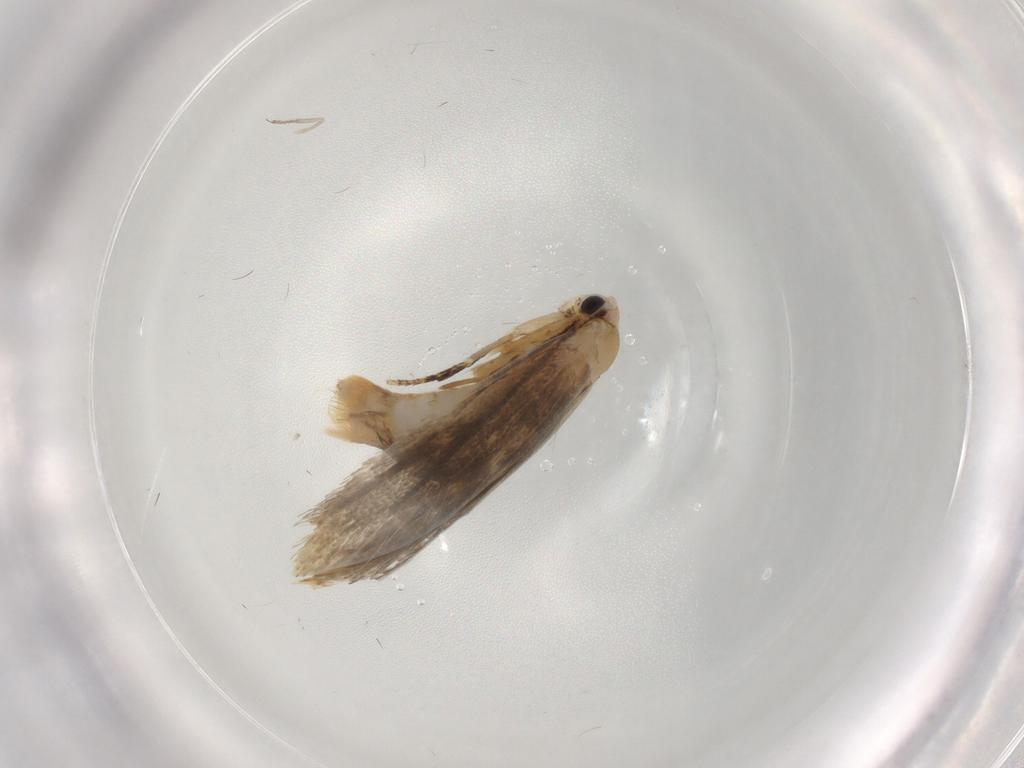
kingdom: Animalia
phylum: Arthropoda
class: Insecta
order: Lepidoptera
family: Tineidae
